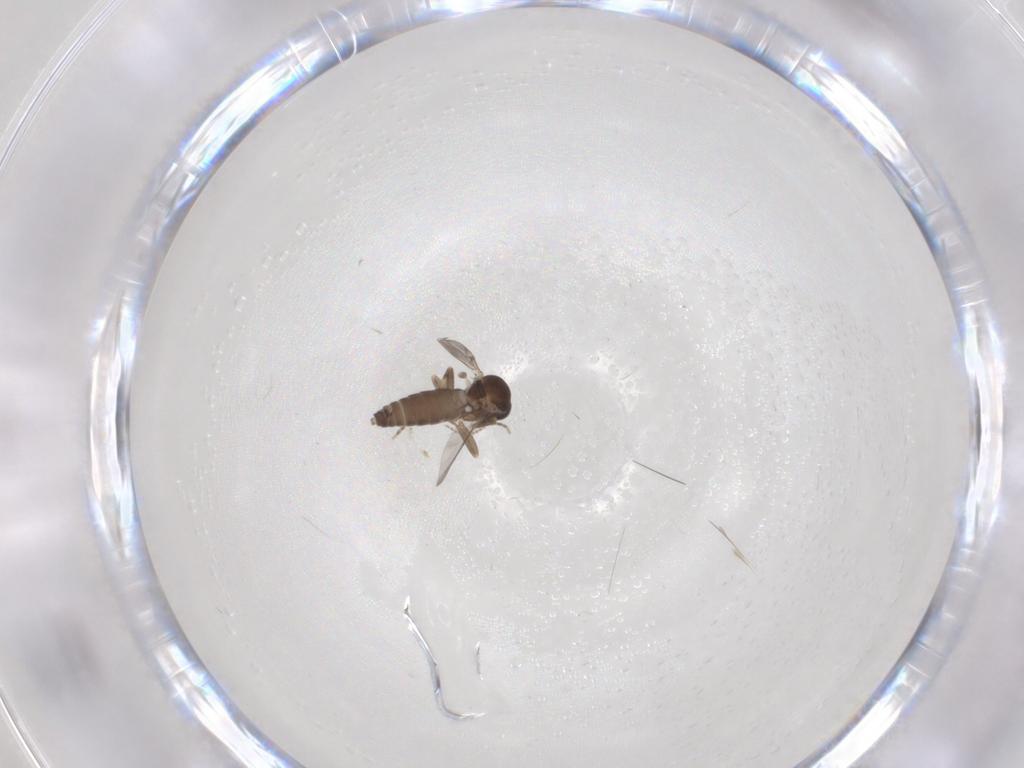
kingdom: Animalia
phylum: Arthropoda
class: Insecta
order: Diptera
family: Ceratopogonidae
